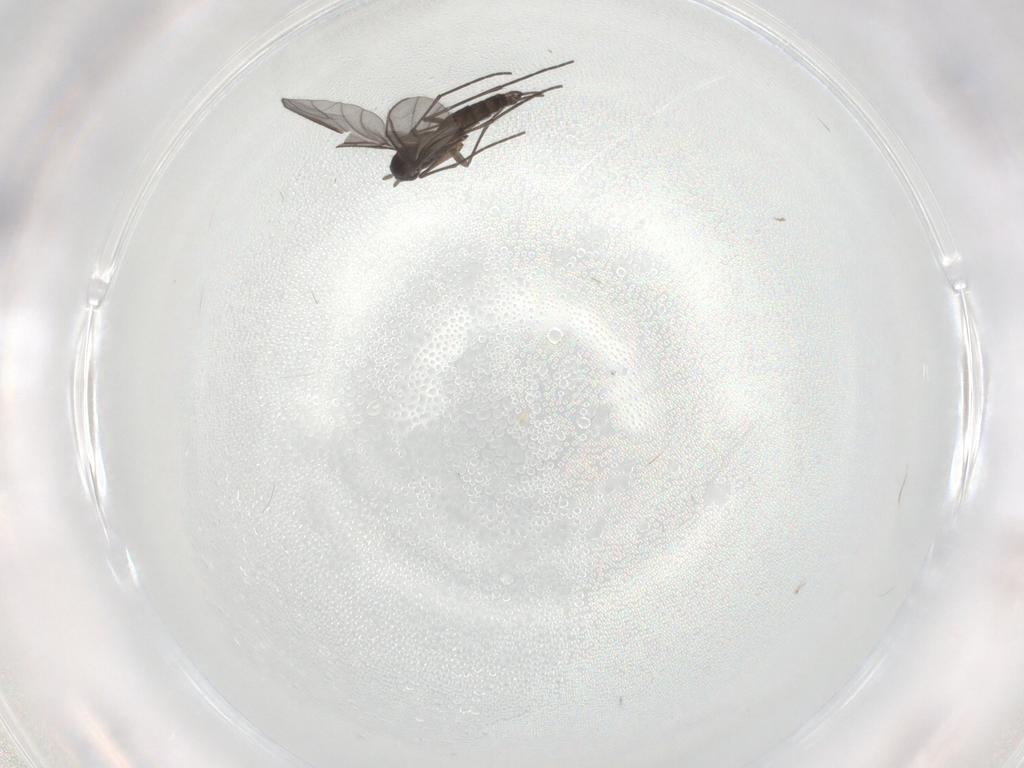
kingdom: Animalia
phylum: Arthropoda
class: Insecta
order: Diptera
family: Sciaridae
